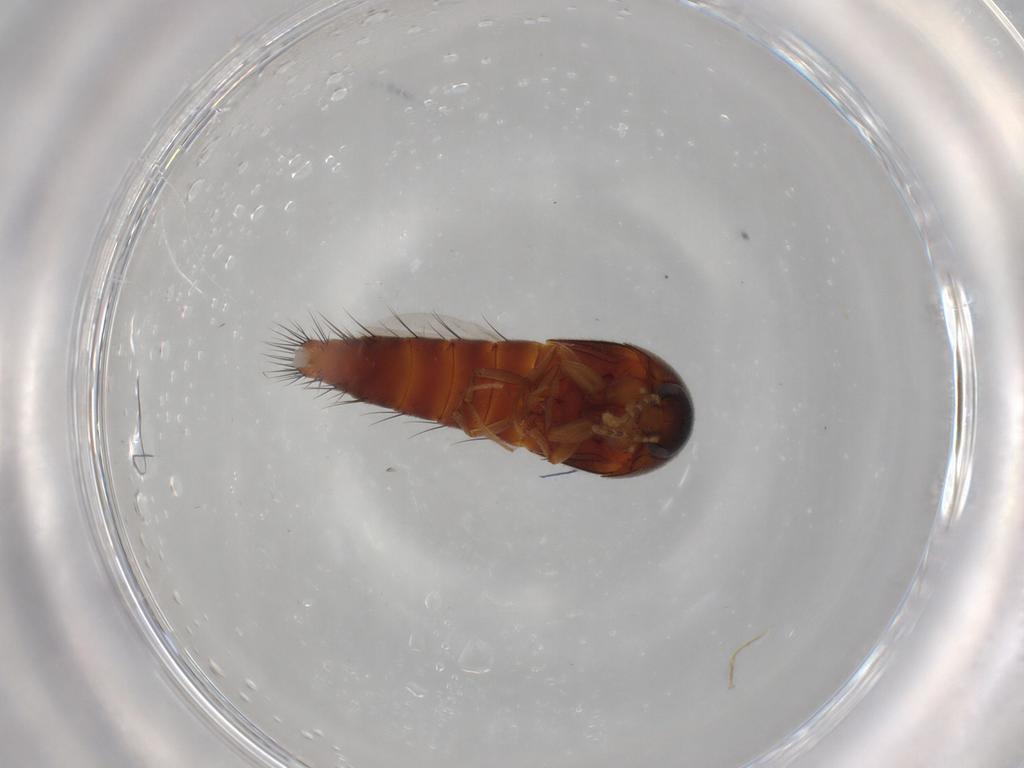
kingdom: Animalia
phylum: Arthropoda
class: Insecta
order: Coleoptera
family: Staphylinidae
